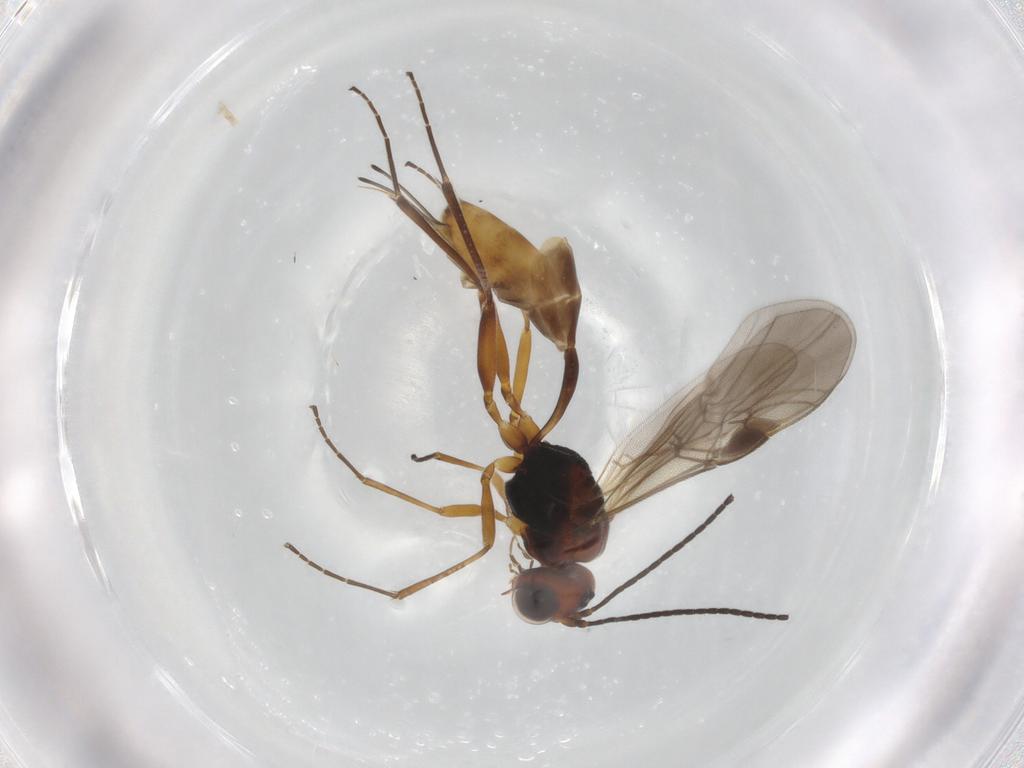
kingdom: Animalia
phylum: Arthropoda
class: Insecta
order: Hymenoptera
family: Braconidae
